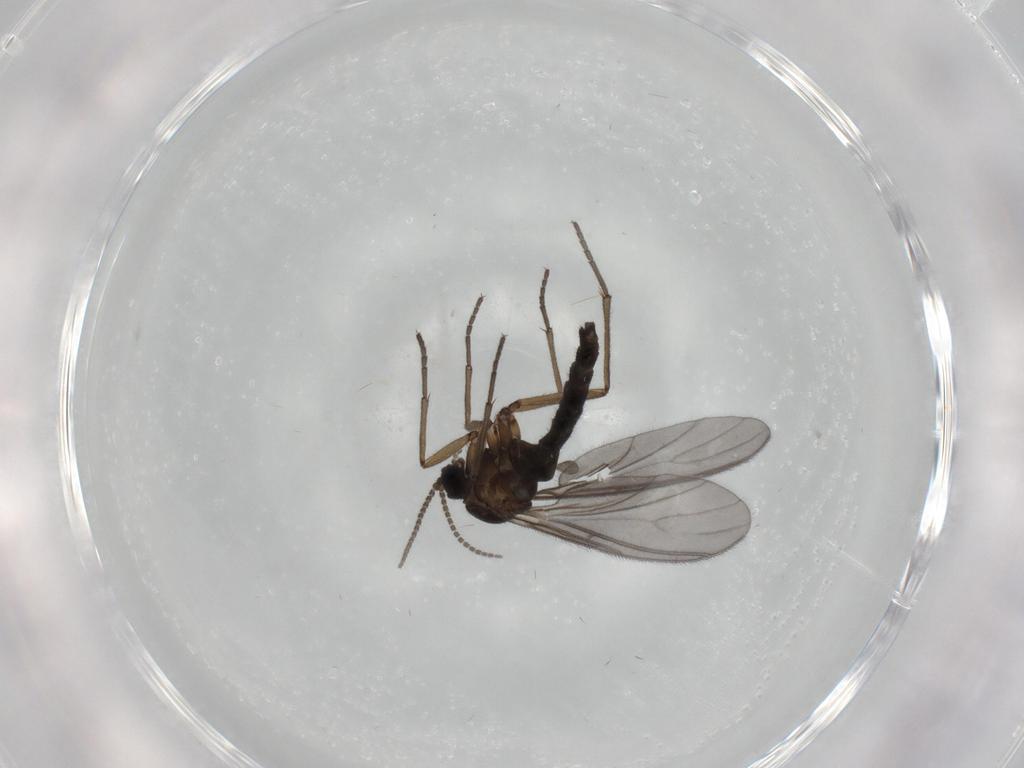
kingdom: Animalia
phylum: Arthropoda
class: Insecta
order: Diptera
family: Sciaridae
